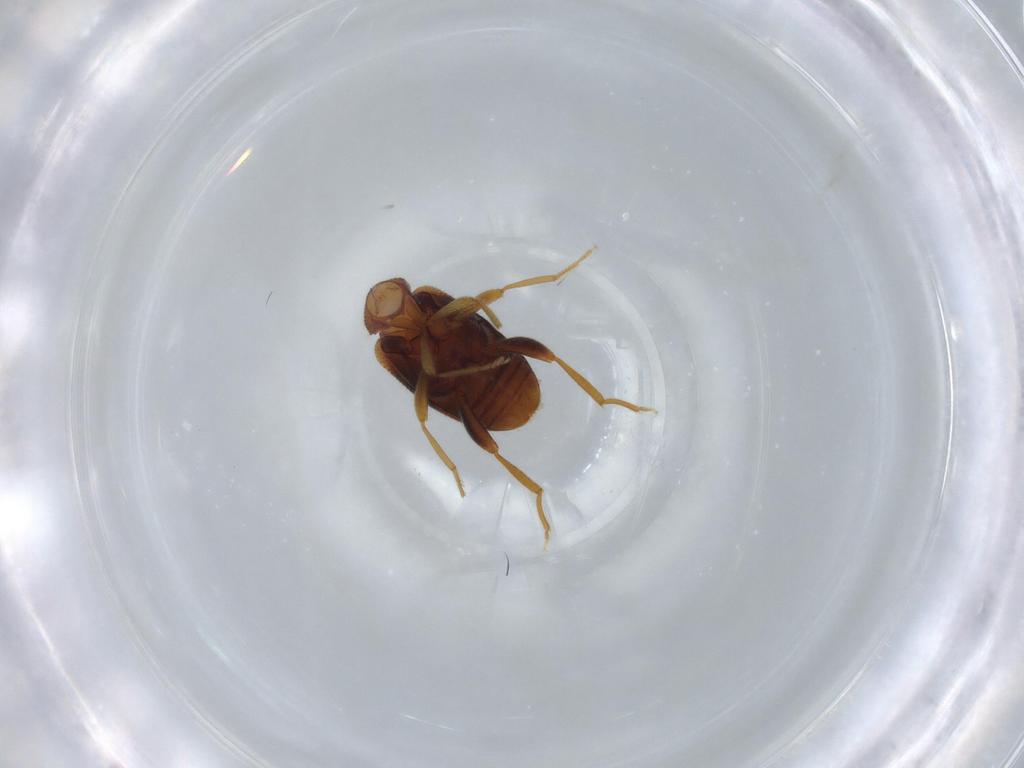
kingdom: Animalia
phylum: Arthropoda
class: Insecta
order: Coleoptera
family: Aderidae
